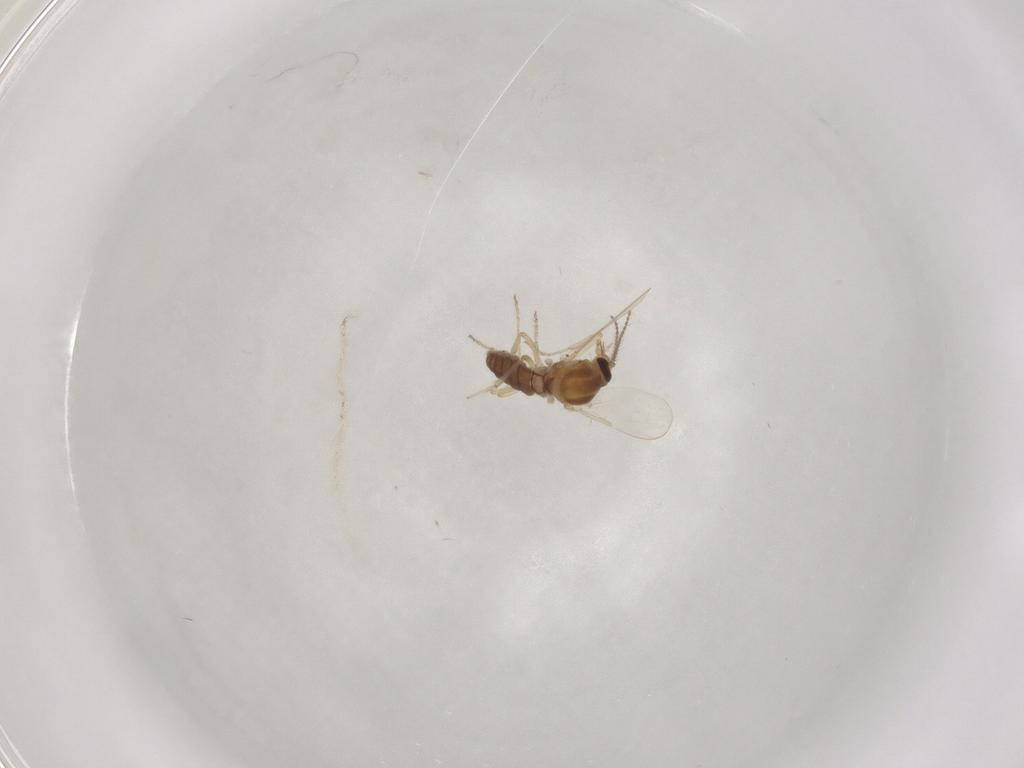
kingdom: Animalia
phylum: Arthropoda
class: Insecta
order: Diptera
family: Ceratopogonidae
